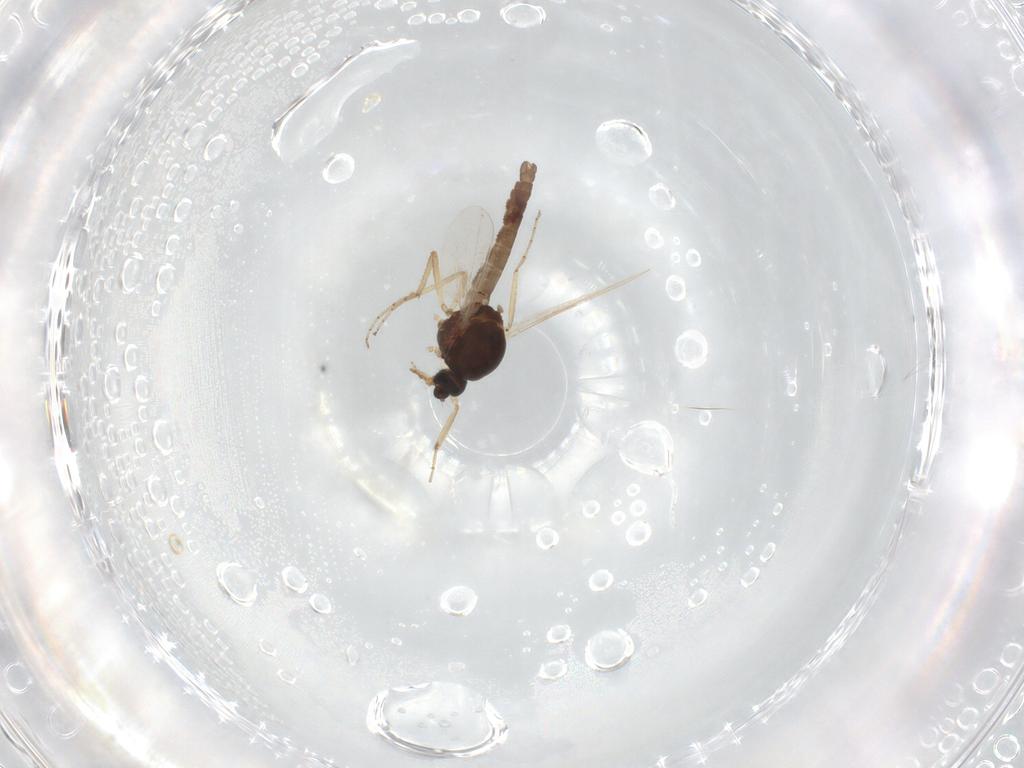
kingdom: Animalia
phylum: Arthropoda
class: Insecta
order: Diptera
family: Ceratopogonidae
